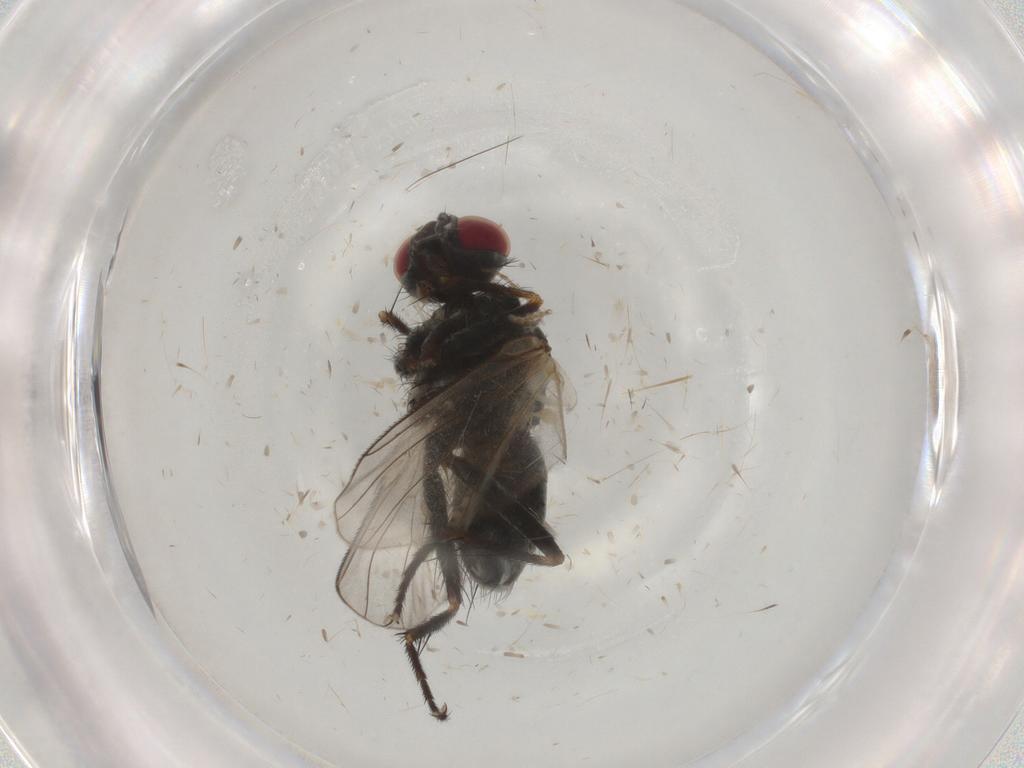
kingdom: Animalia
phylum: Arthropoda
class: Insecta
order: Diptera
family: Muscidae
